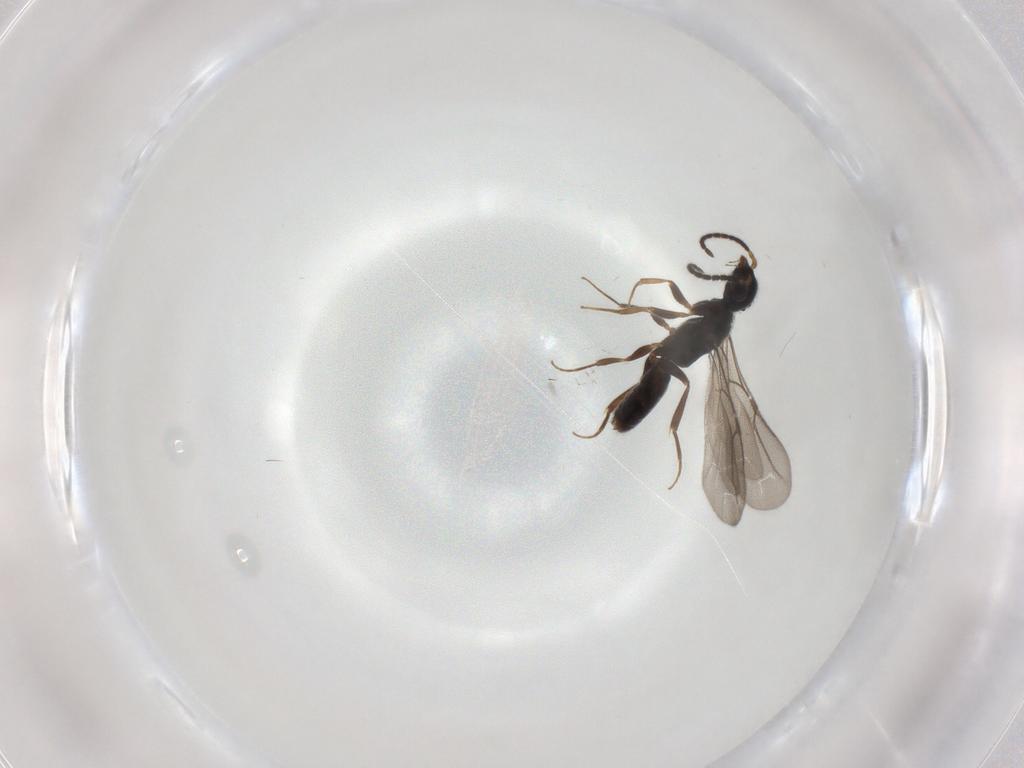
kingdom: Animalia
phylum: Arthropoda
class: Insecta
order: Hymenoptera
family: Bethylidae
